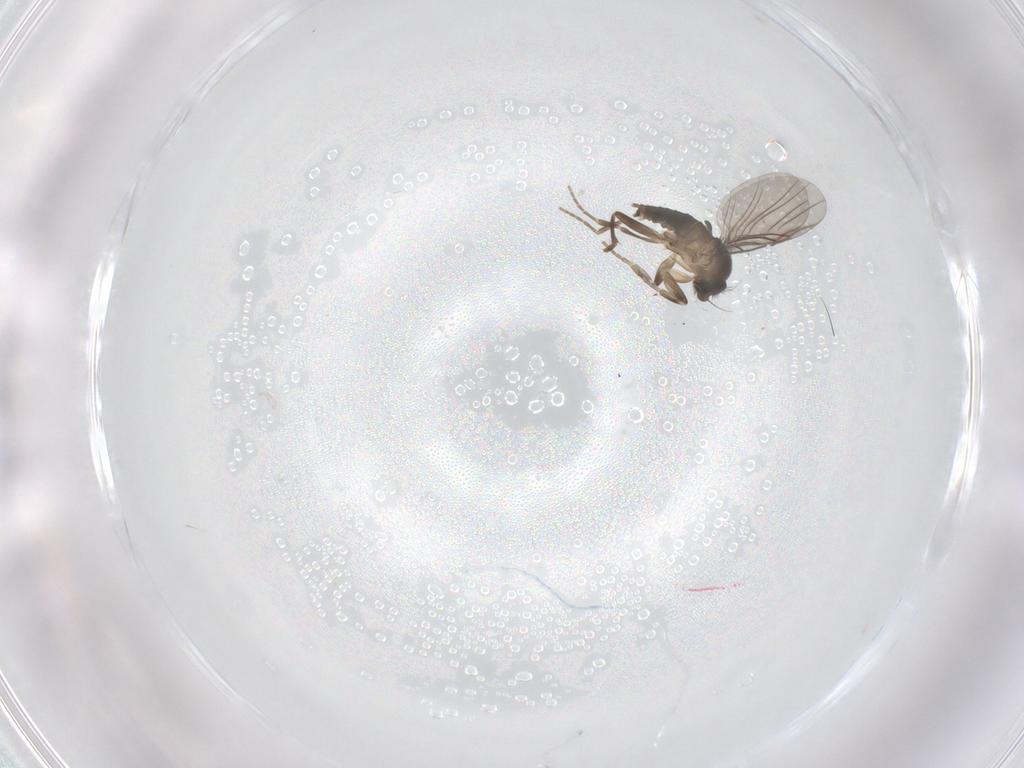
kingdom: Animalia
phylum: Arthropoda
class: Insecta
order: Diptera
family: Phoridae
